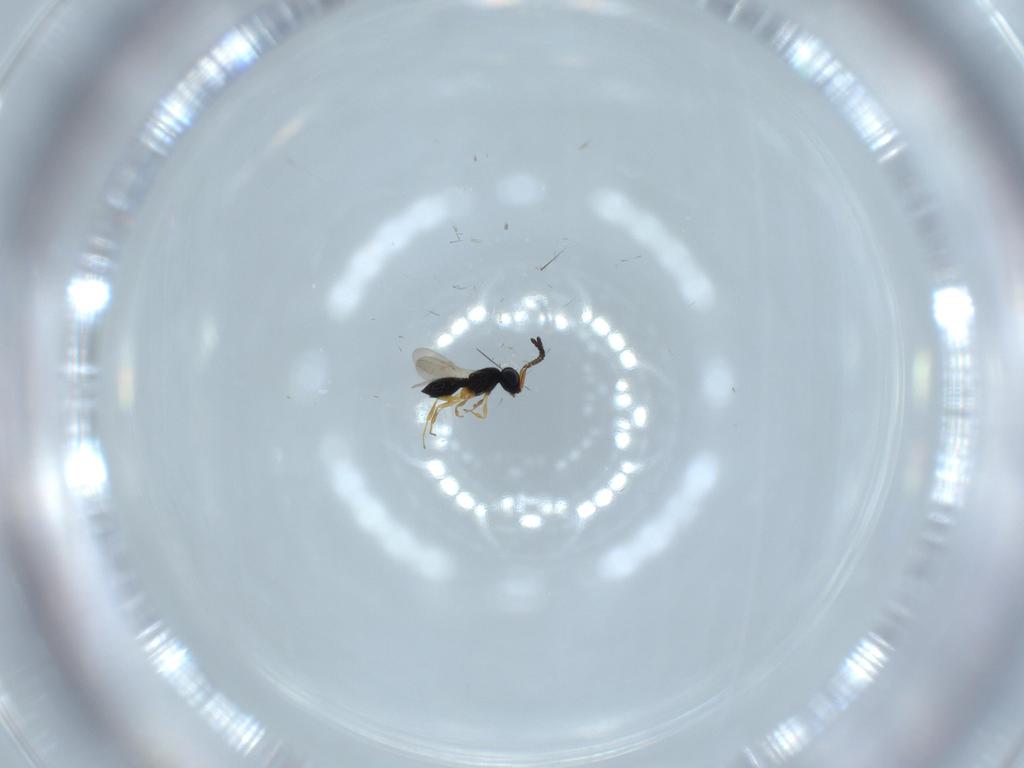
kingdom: Animalia
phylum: Arthropoda
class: Insecta
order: Hymenoptera
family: Scelionidae
